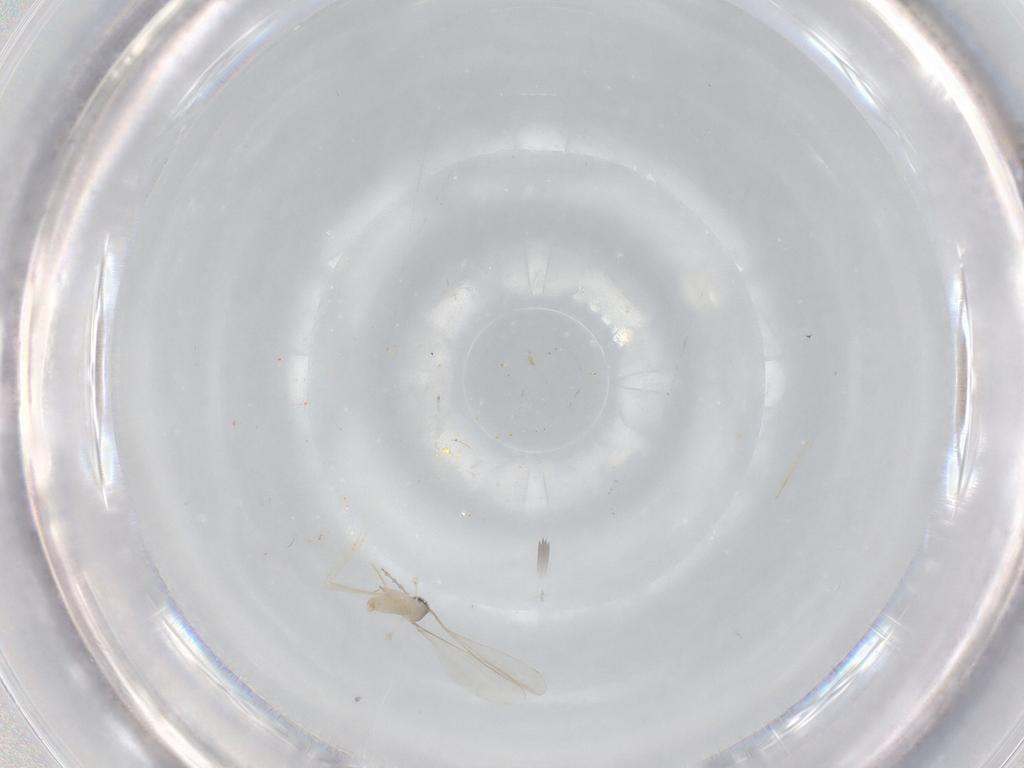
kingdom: Animalia
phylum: Arthropoda
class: Insecta
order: Diptera
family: Cecidomyiidae
